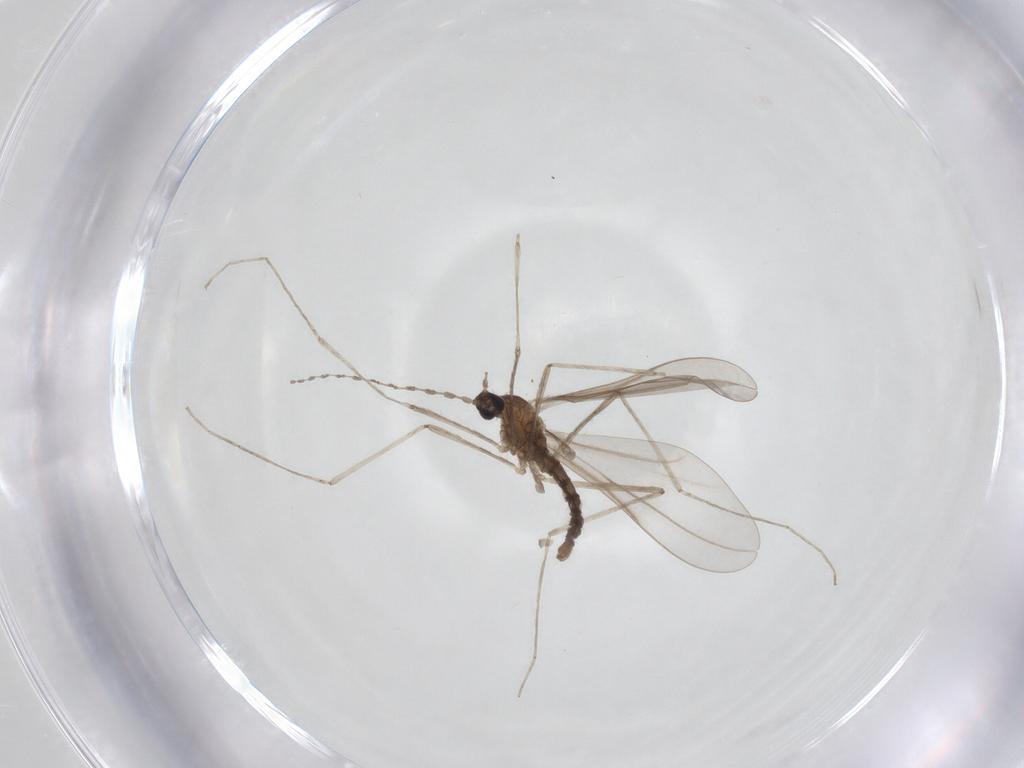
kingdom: Animalia
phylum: Arthropoda
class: Insecta
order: Diptera
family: Cecidomyiidae
